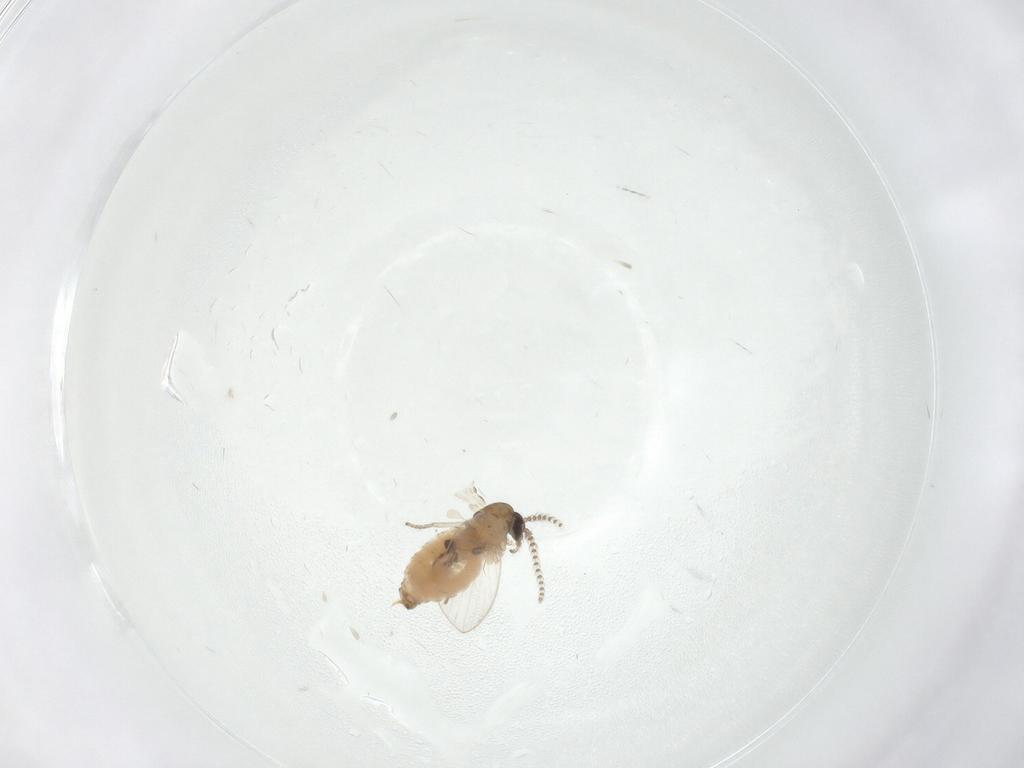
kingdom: Animalia
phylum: Arthropoda
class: Insecta
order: Diptera
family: Psychodidae
